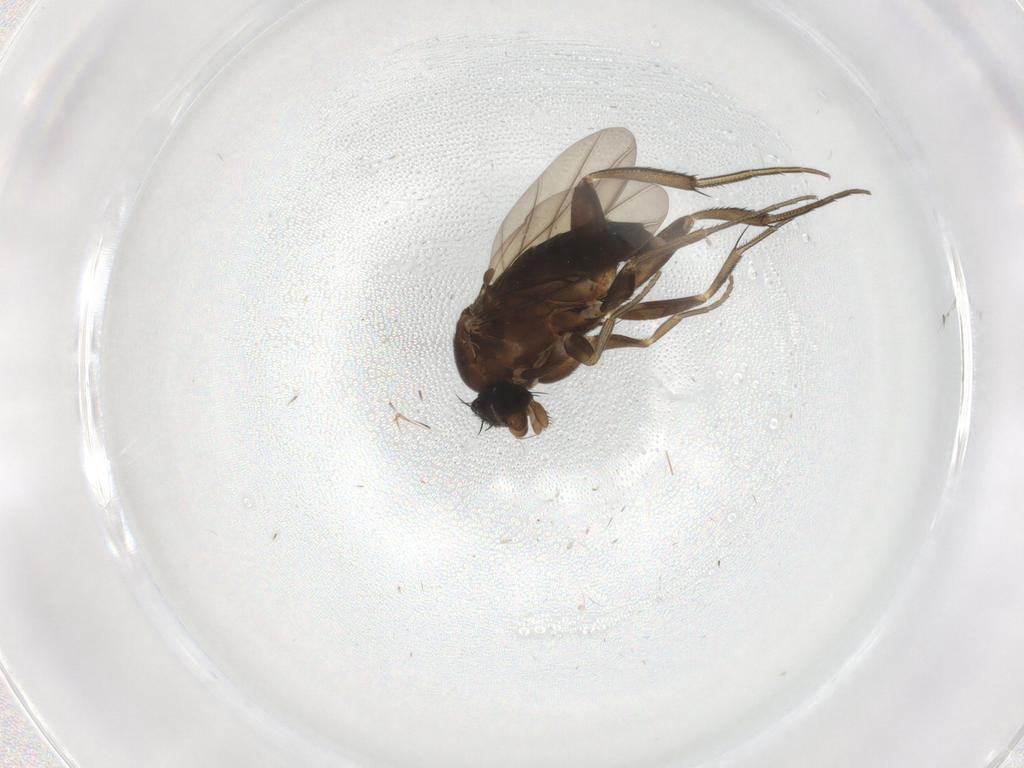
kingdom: Animalia
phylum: Arthropoda
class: Insecta
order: Diptera
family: Phoridae
